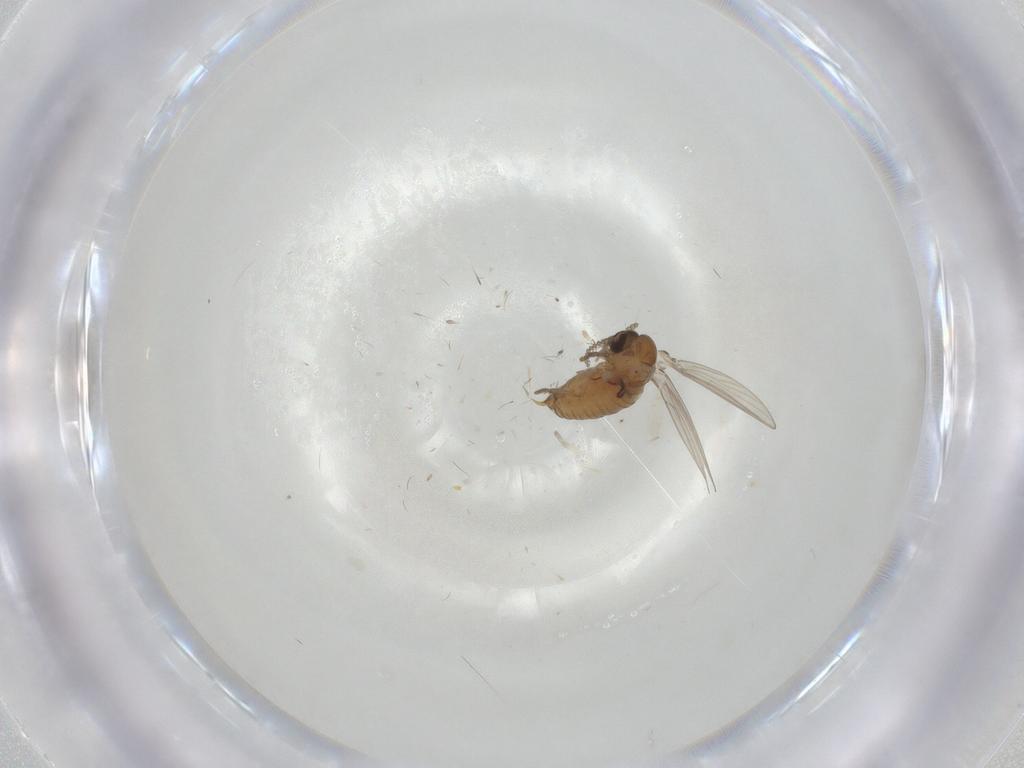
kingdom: Animalia
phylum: Arthropoda
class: Insecta
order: Diptera
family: Psychodidae
